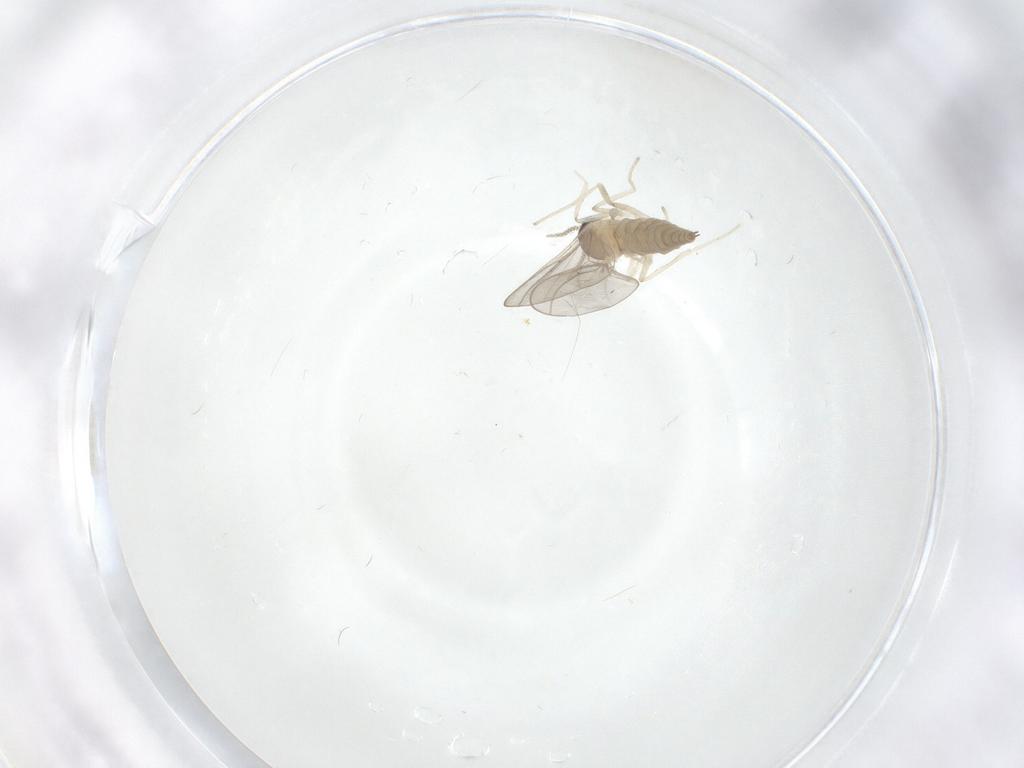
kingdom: Animalia
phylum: Arthropoda
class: Insecta
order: Diptera
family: Cecidomyiidae
